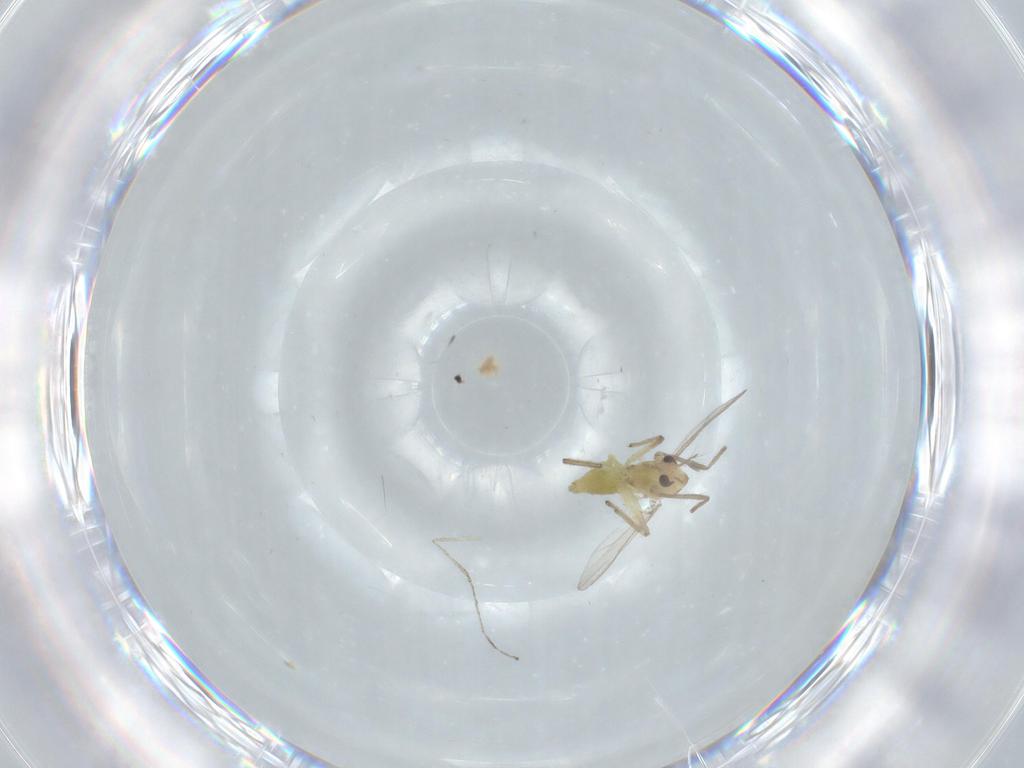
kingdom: Animalia
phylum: Arthropoda
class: Insecta
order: Diptera
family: Chironomidae
